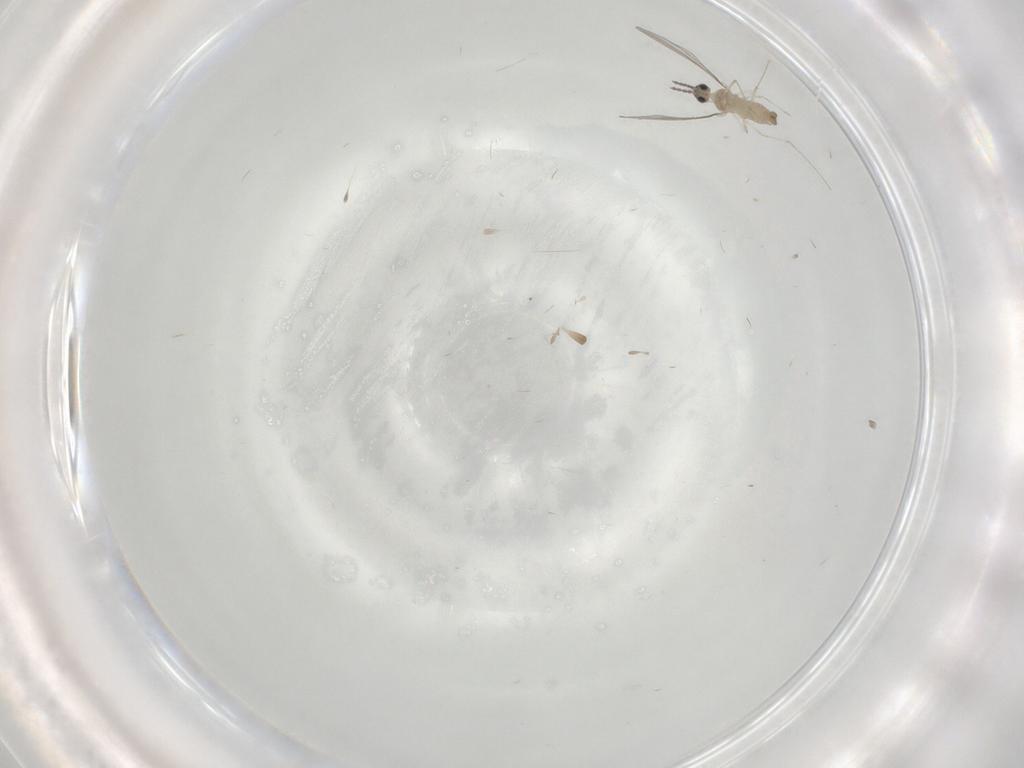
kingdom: Animalia
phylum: Arthropoda
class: Insecta
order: Diptera
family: Cecidomyiidae
